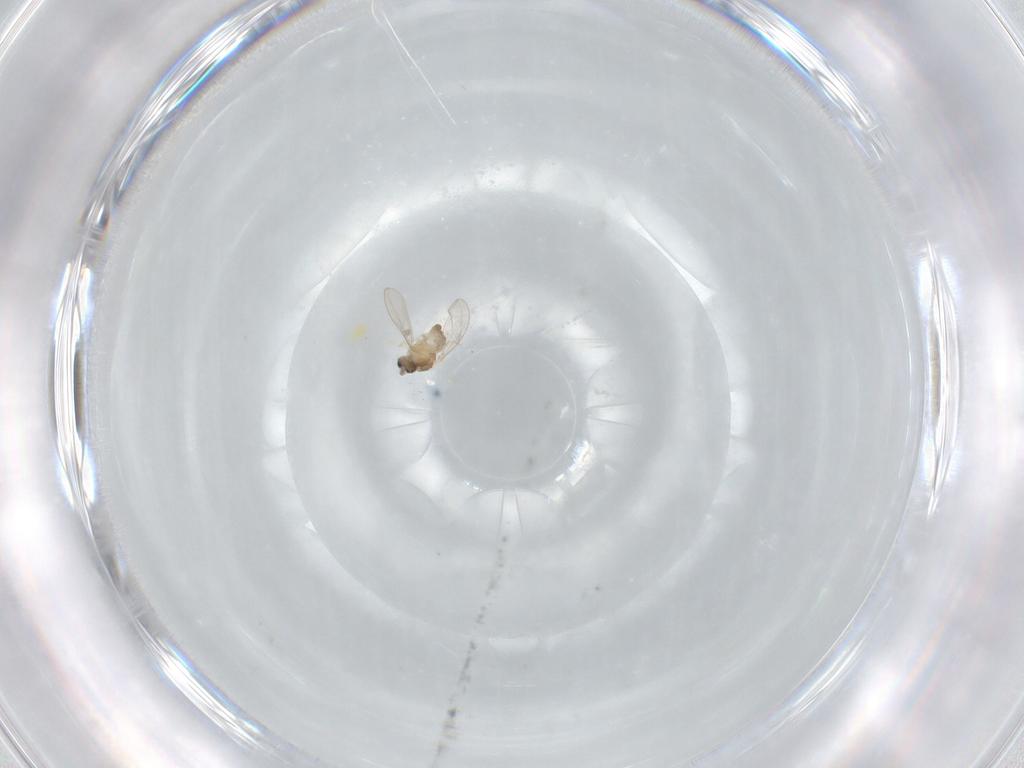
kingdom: Animalia
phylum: Arthropoda
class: Insecta
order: Diptera
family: Cecidomyiidae
